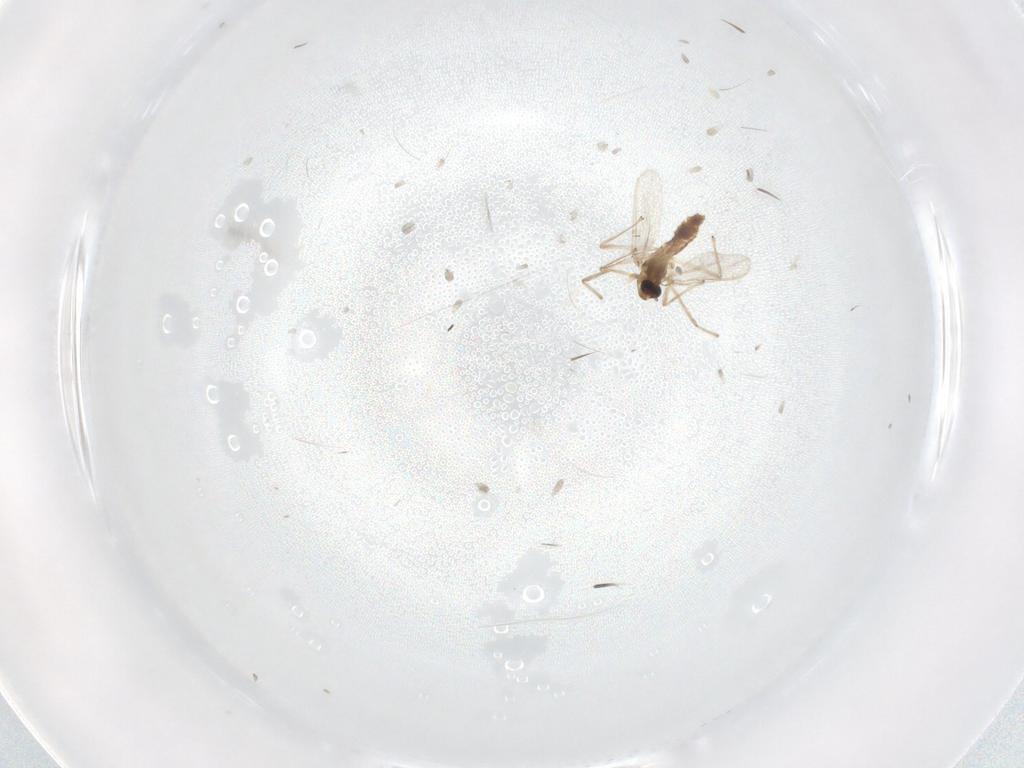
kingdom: Animalia
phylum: Arthropoda
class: Insecta
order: Diptera
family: Chironomidae
